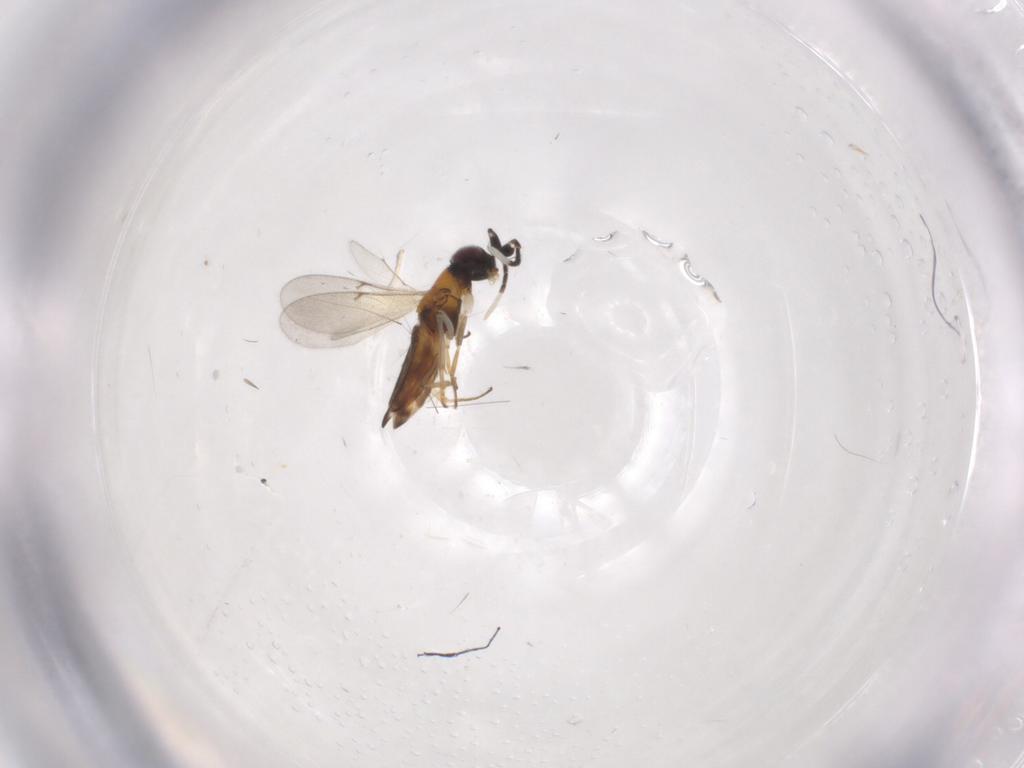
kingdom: Animalia
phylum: Arthropoda
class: Insecta
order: Hymenoptera
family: Encyrtidae
